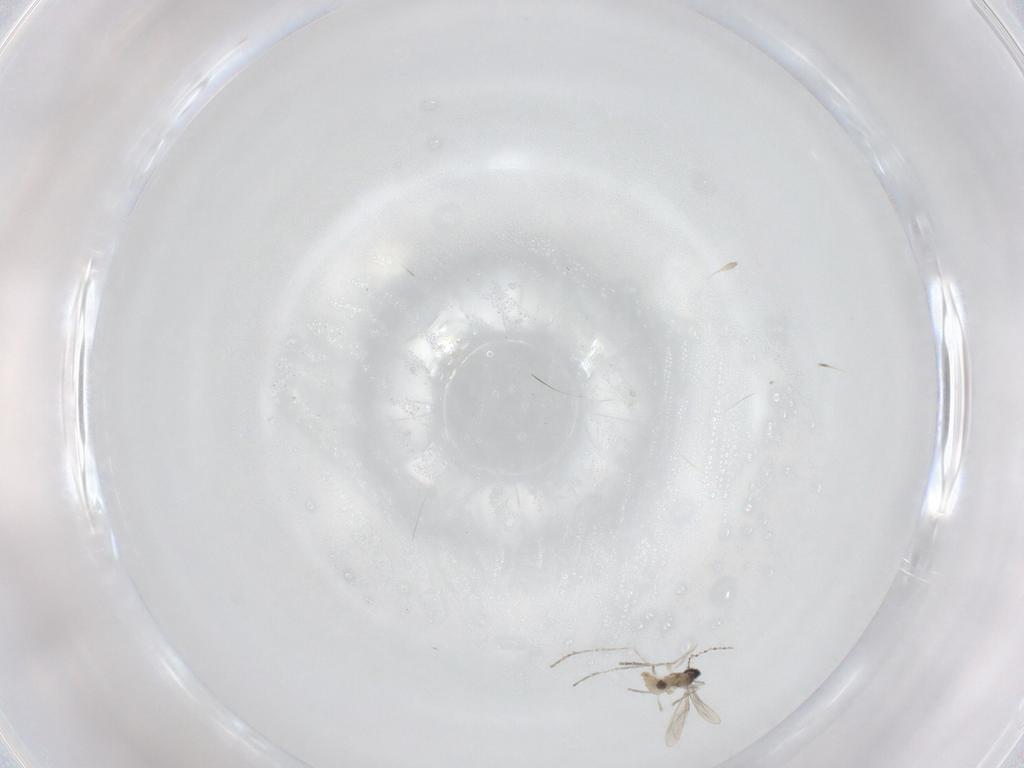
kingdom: Animalia
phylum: Arthropoda
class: Insecta
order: Diptera
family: Cecidomyiidae
